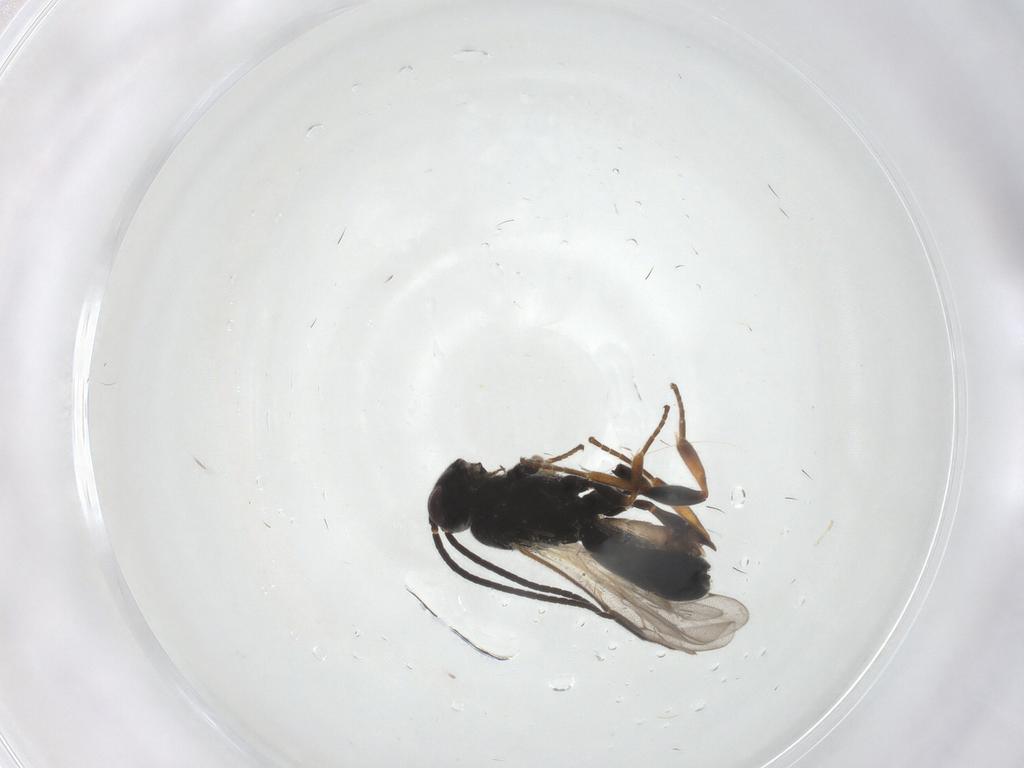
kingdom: Animalia
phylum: Arthropoda
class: Insecta
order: Hymenoptera
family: Braconidae
